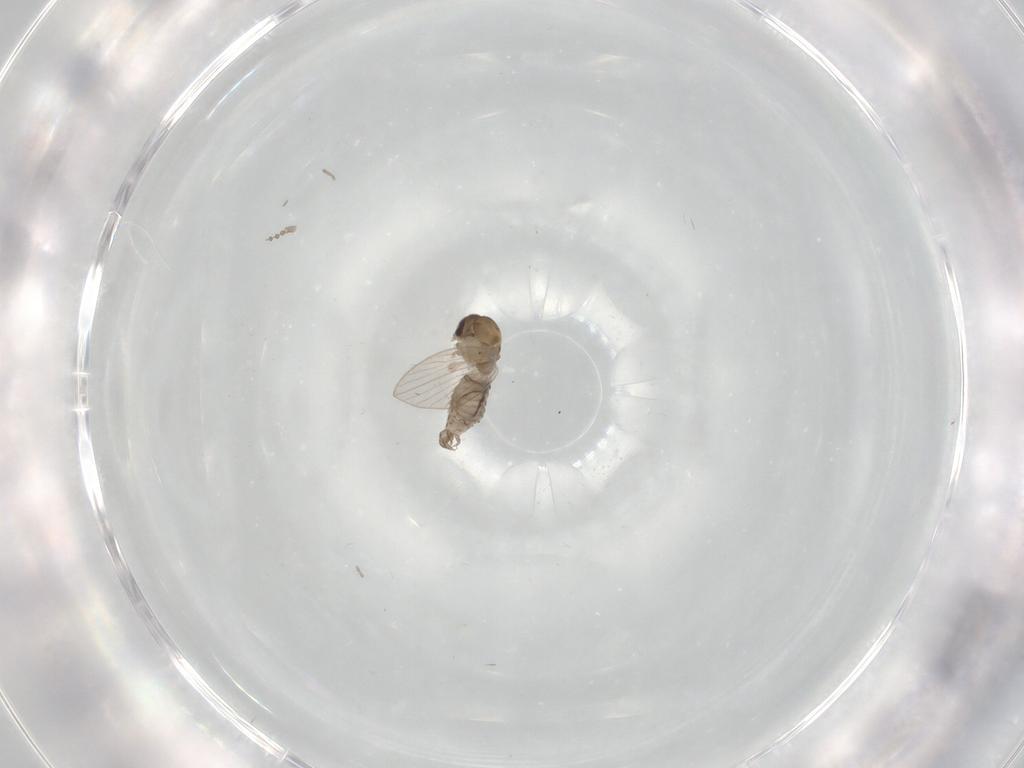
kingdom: Animalia
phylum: Arthropoda
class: Insecta
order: Diptera
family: Psychodidae
